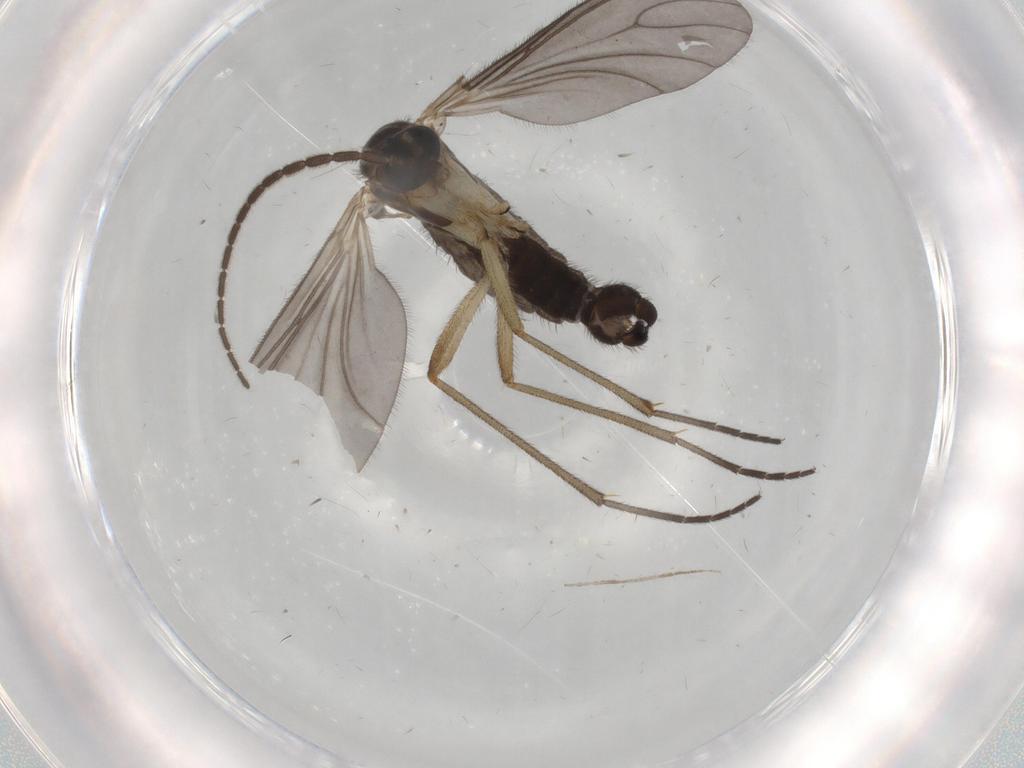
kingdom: Animalia
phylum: Arthropoda
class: Insecta
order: Diptera
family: Sciaridae
